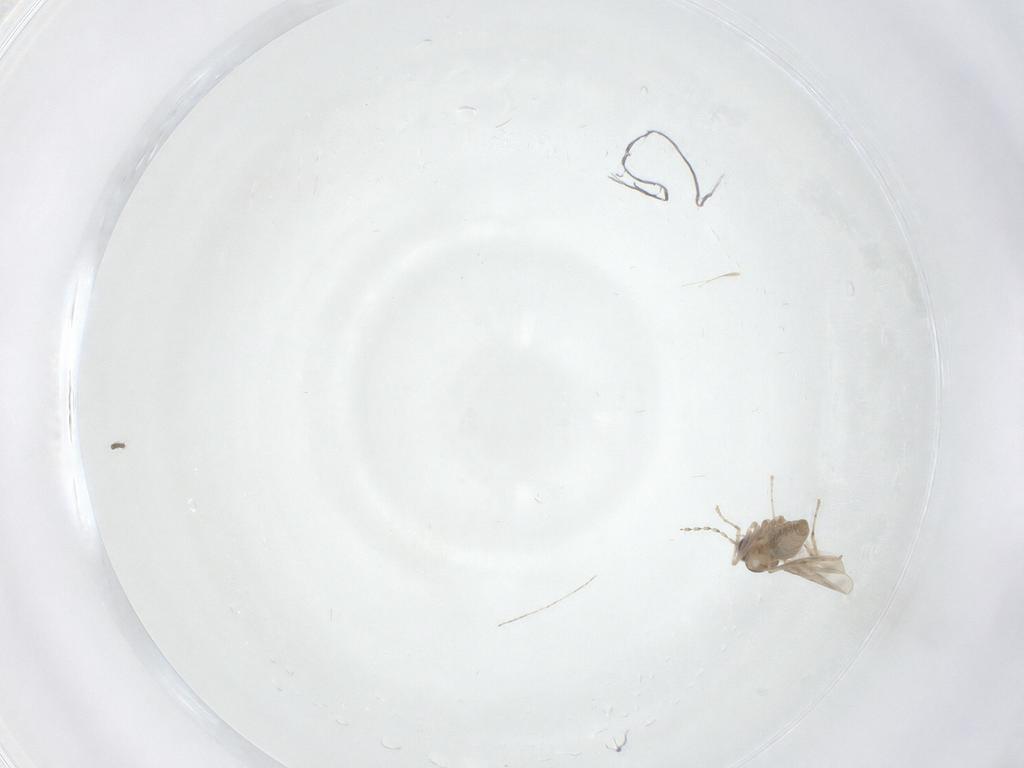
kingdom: Animalia
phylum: Arthropoda
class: Insecta
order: Diptera
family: Cecidomyiidae
